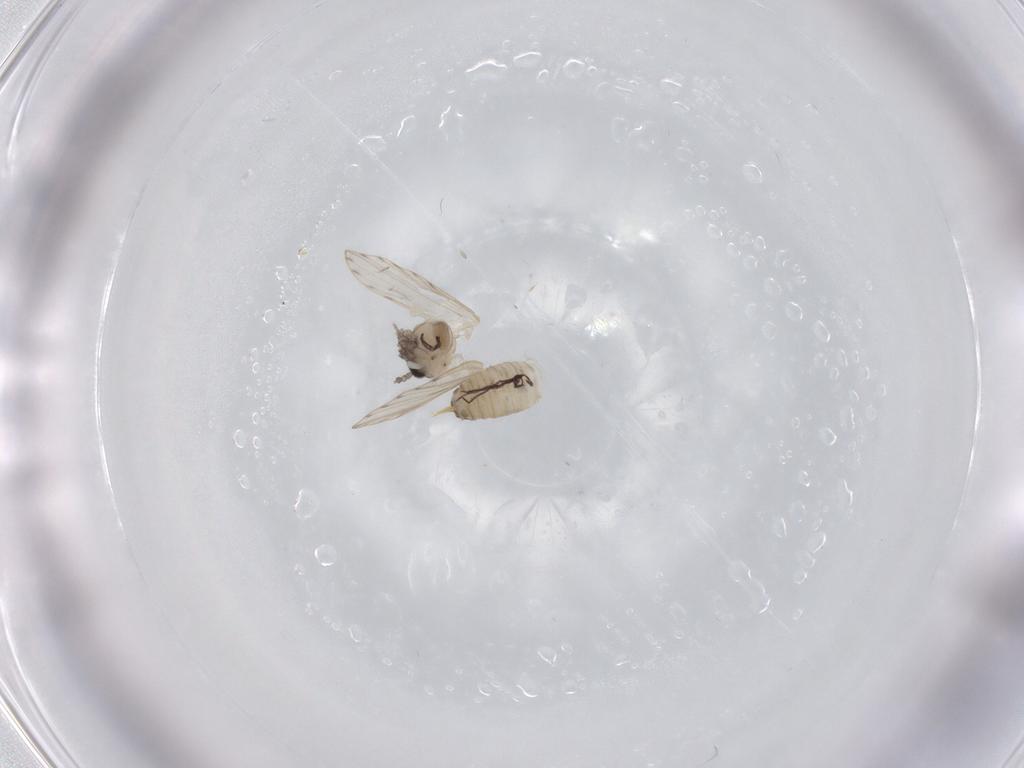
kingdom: Animalia
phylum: Arthropoda
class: Insecta
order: Diptera
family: Psychodidae
